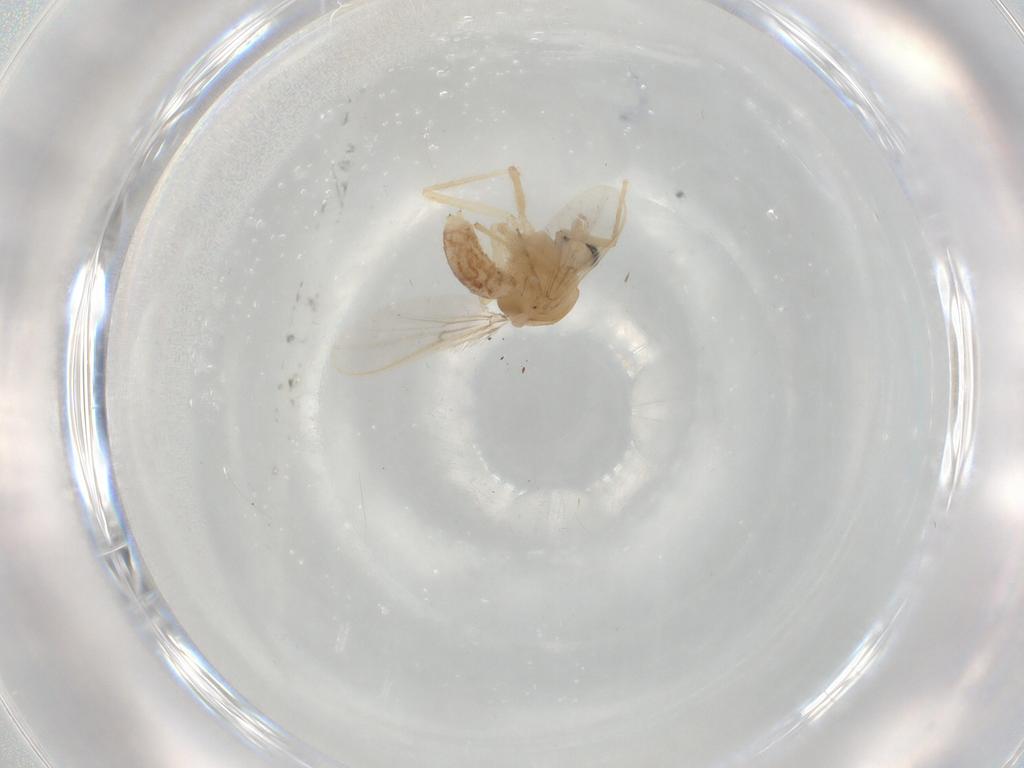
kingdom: Animalia
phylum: Arthropoda
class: Insecta
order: Diptera
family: Chironomidae
